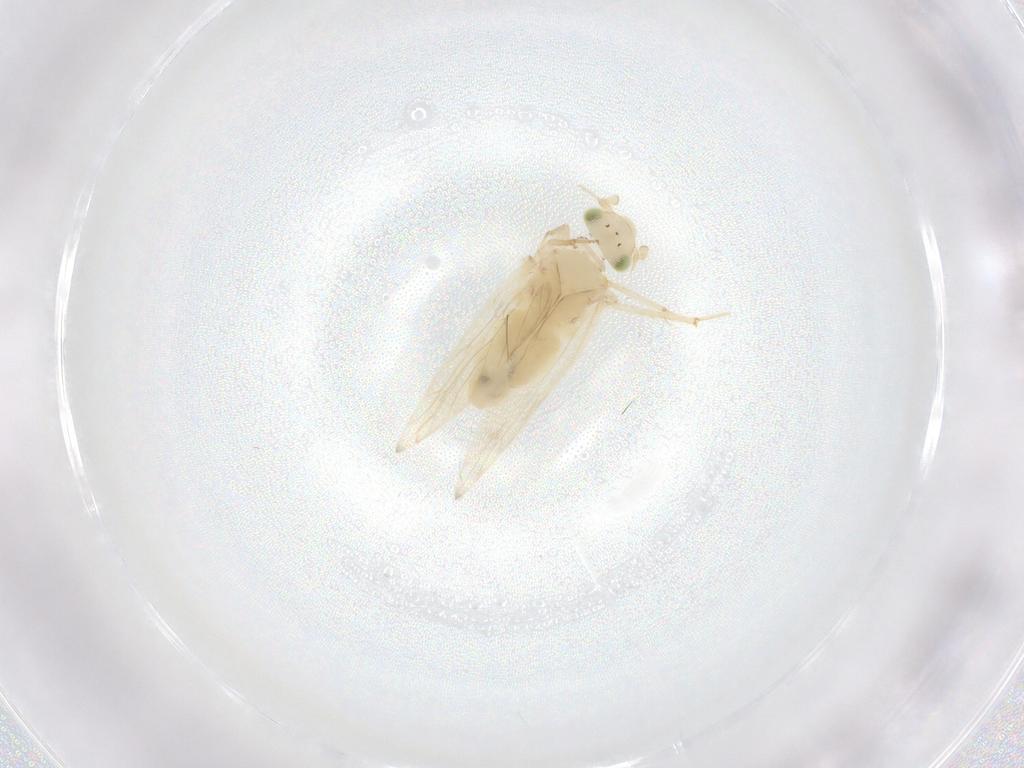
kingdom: Animalia
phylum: Arthropoda
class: Insecta
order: Psocodea
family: Lepidopsocidae
